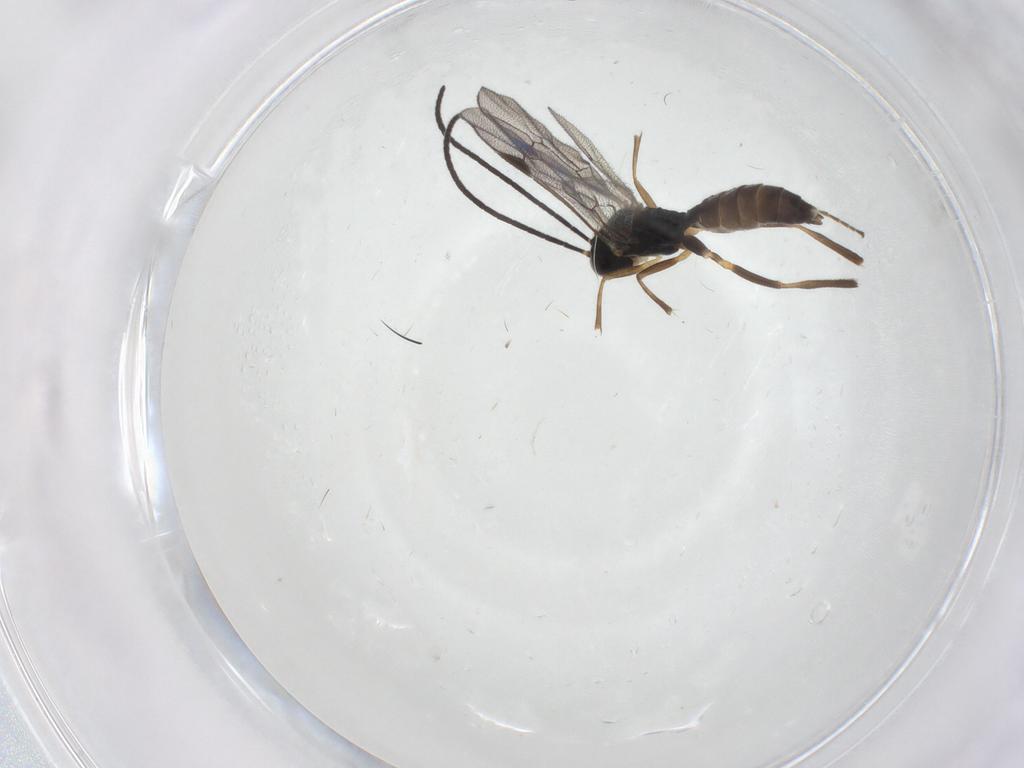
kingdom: Animalia
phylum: Arthropoda
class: Insecta
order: Hymenoptera
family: Ichneumonidae
